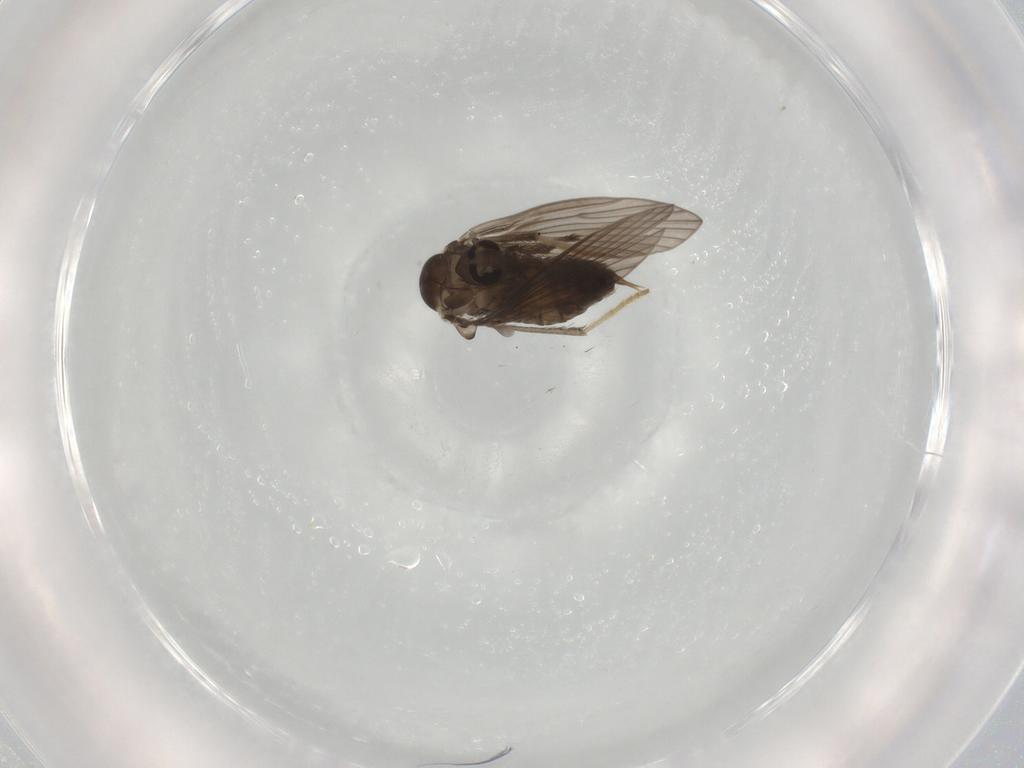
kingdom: Animalia
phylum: Arthropoda
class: Insecta
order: Diptera
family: Psychodidae
